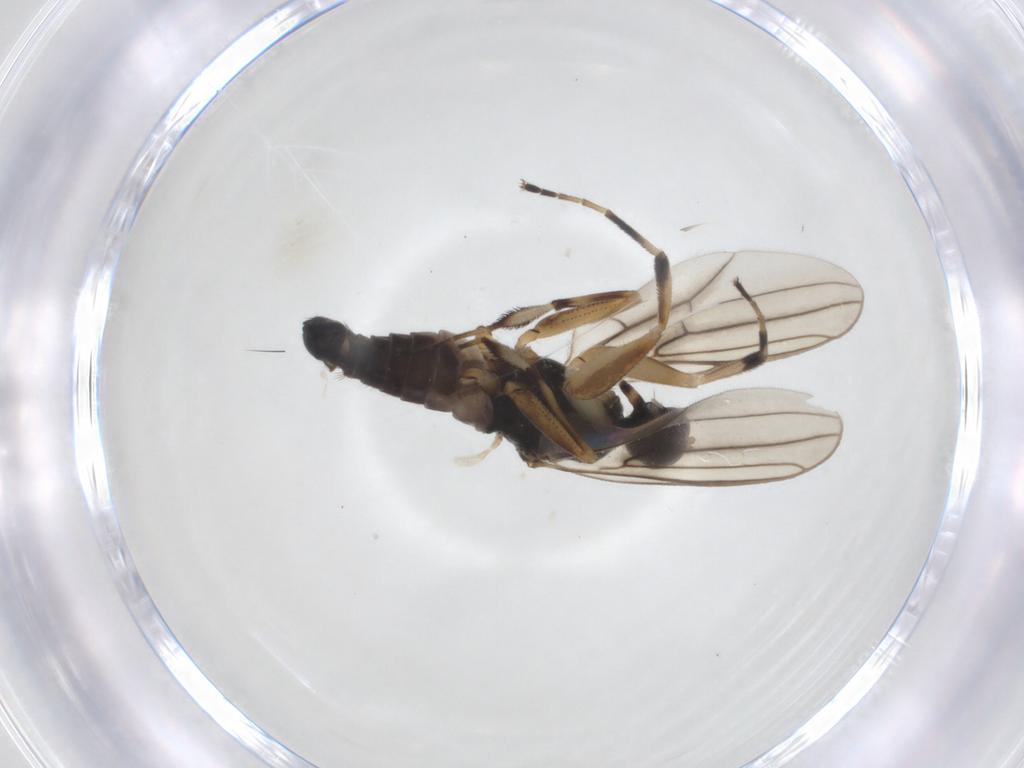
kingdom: Animalia
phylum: Arthropoda
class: Insecta
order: Diptera
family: Hybotidae
